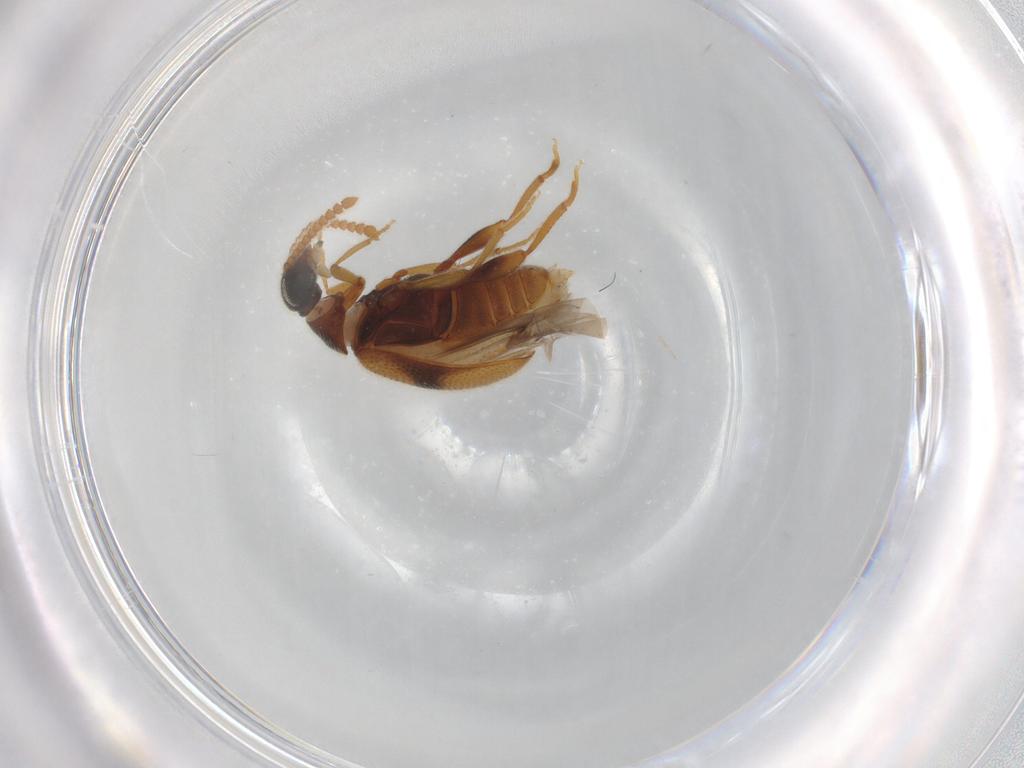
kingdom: Animalia
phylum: Arthropoda
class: Insecta
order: Coleoptera
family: Aderidae
